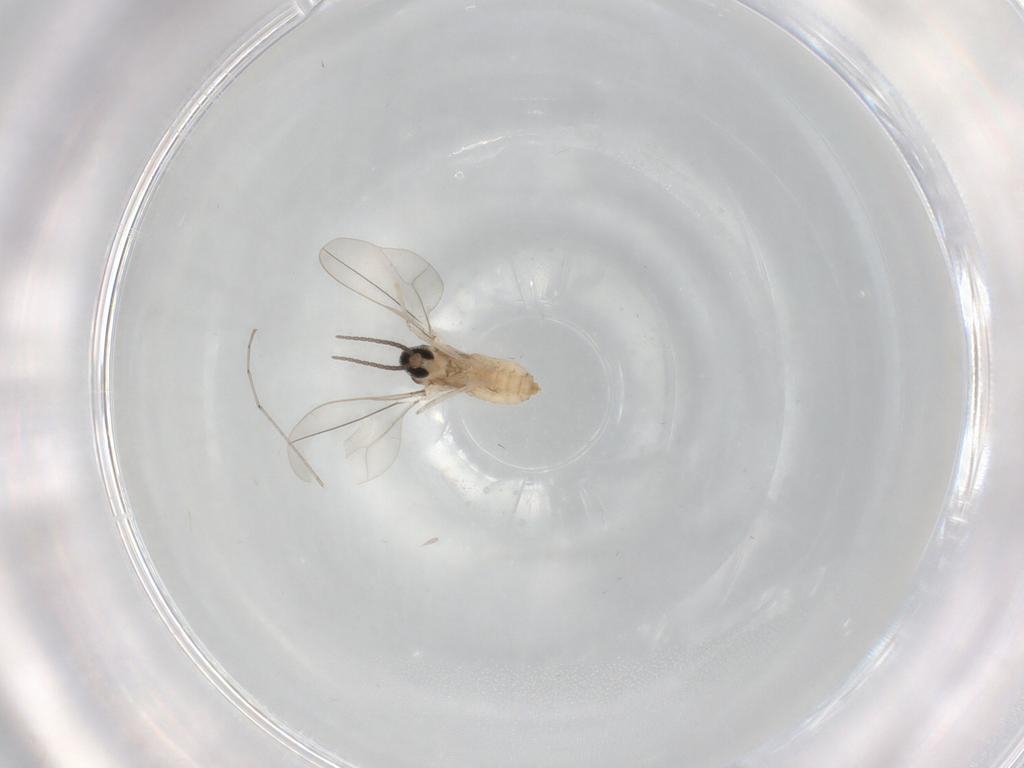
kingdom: Animalia
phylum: Arthropoda
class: Insecta
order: Diptera
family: Cecidomyiidae
